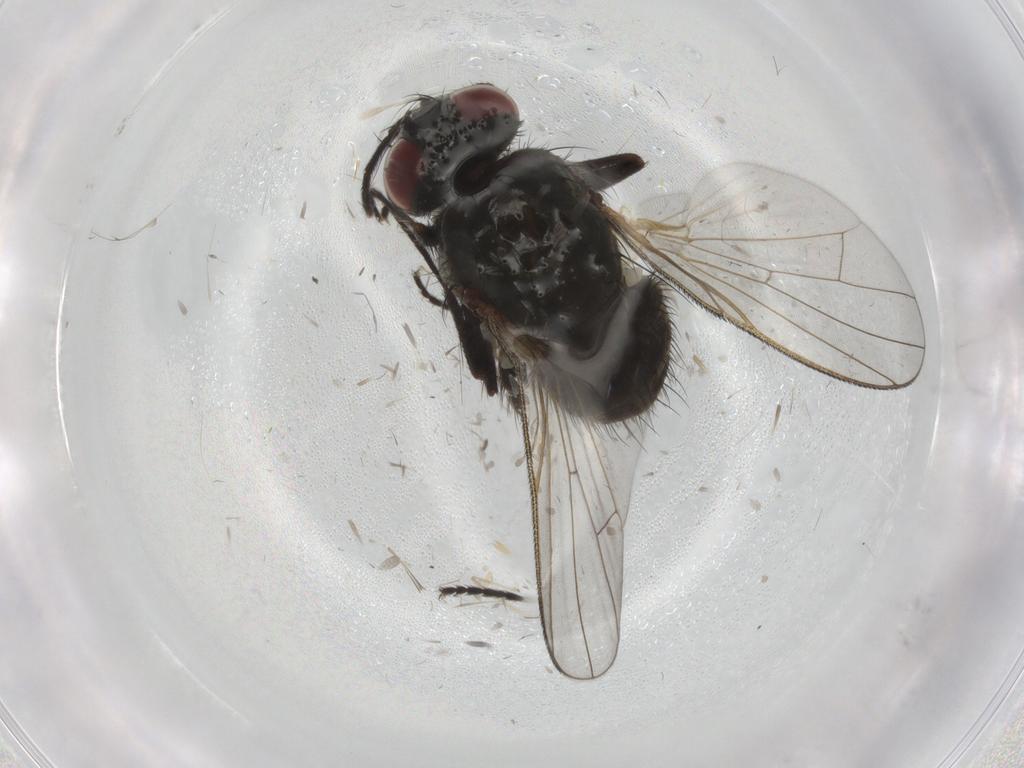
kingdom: Animalia
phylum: Arthropoda
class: Insecta
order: Diptera
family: Muscidae
